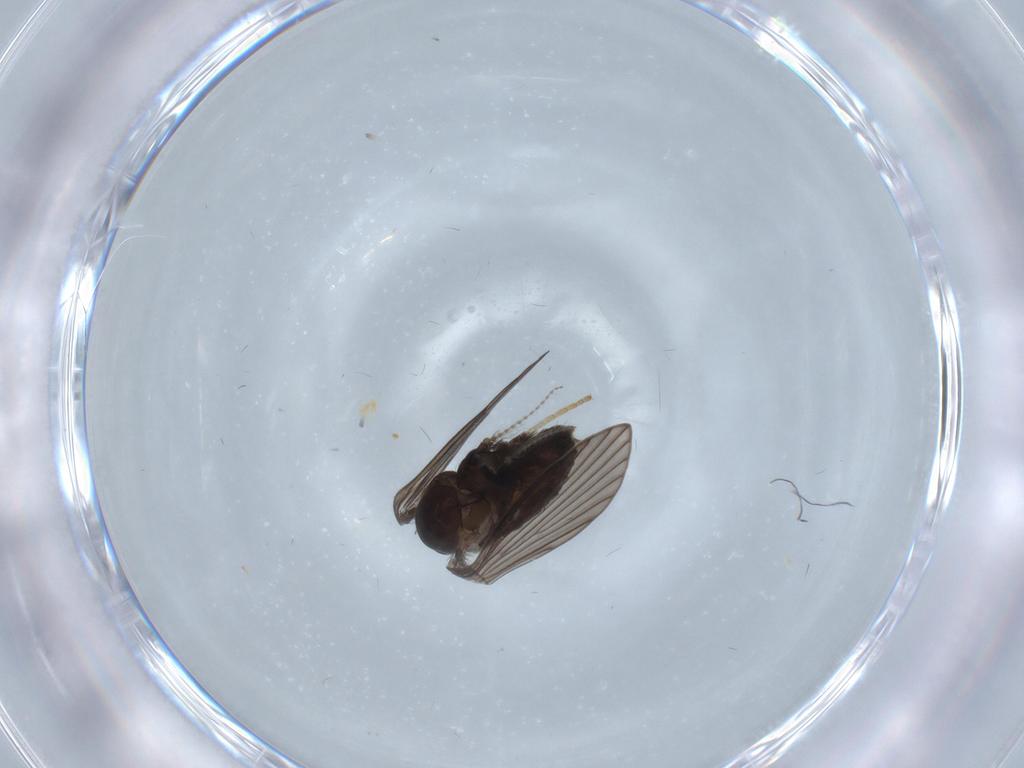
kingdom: Animalia
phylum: Arthropoda
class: Insecta
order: Diptera
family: Psychodidae
